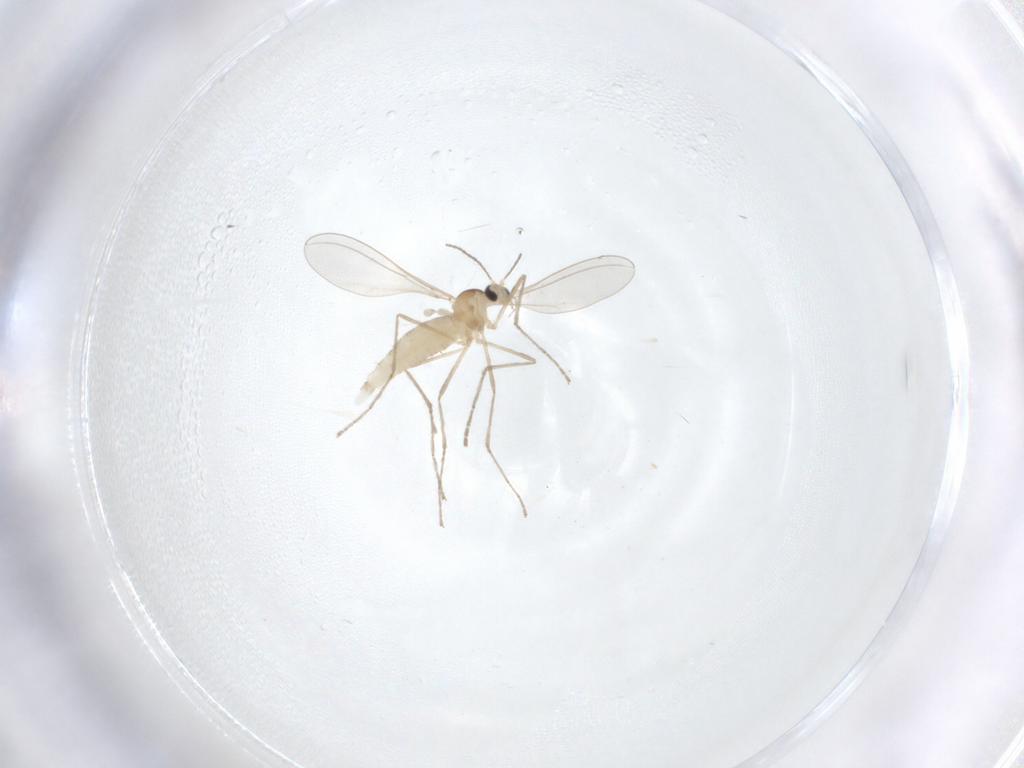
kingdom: Animalia
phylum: Arthropoda
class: Insecta
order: Diptera
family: Cecidomyiidae
